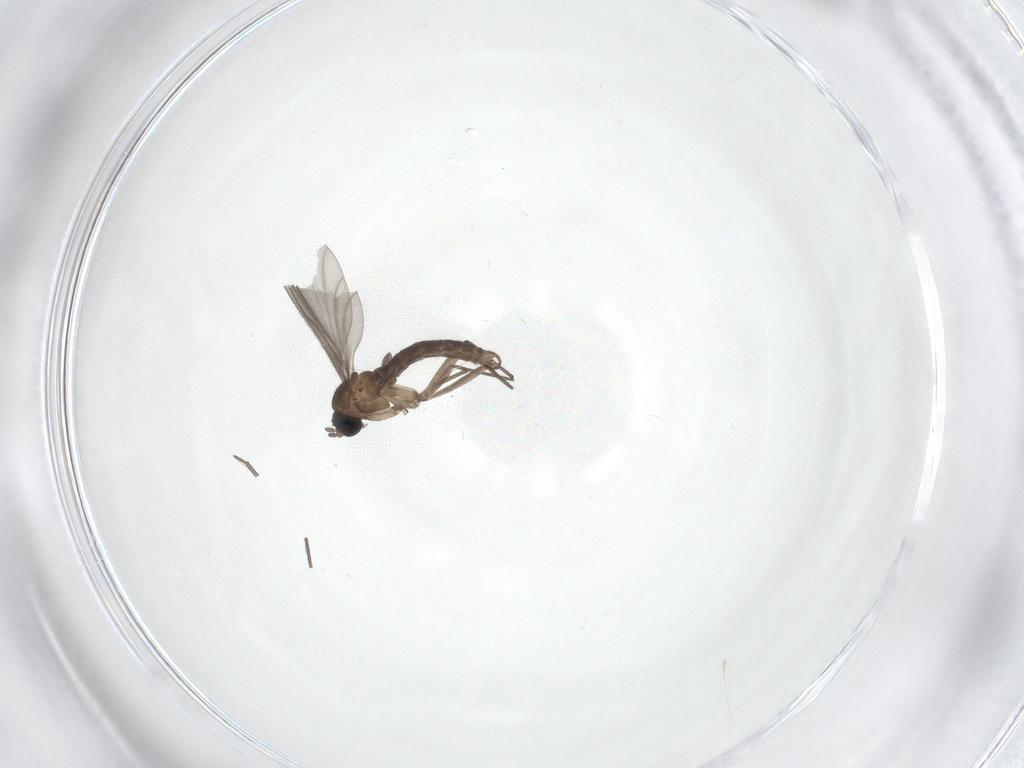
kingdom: Animalia
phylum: Arthropoda
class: Insecta
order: Diptera
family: Sciaridae
